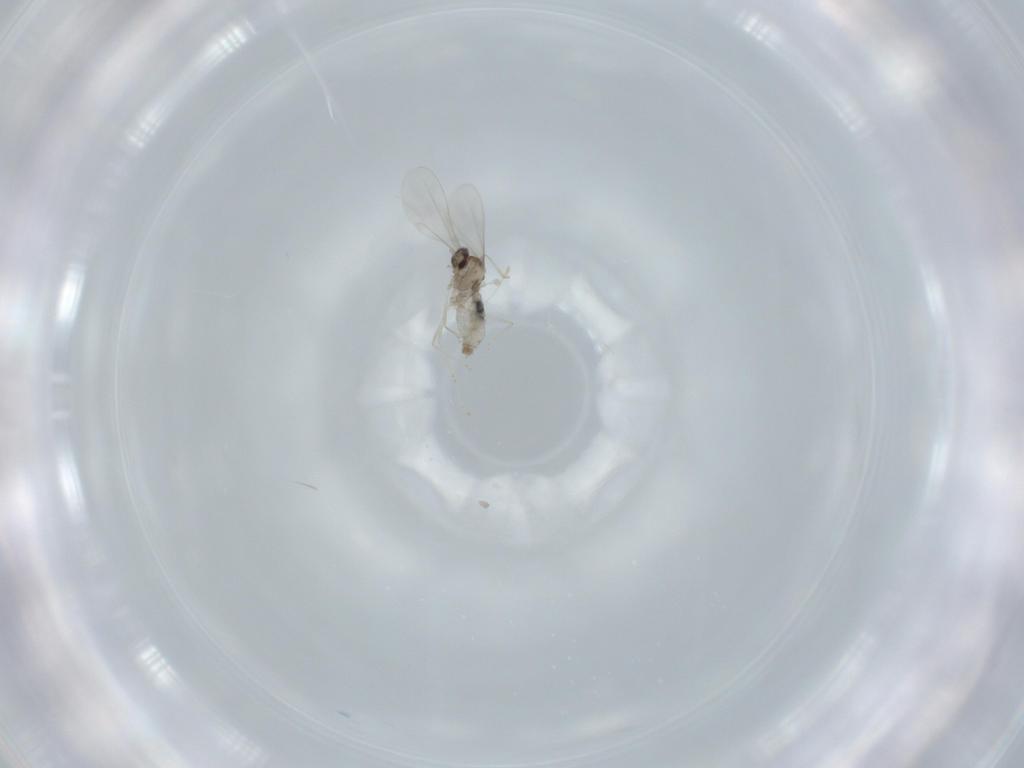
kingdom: Animalia
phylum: Arthropoda
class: Insecta
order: Diptera
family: Cecidomyiidae
